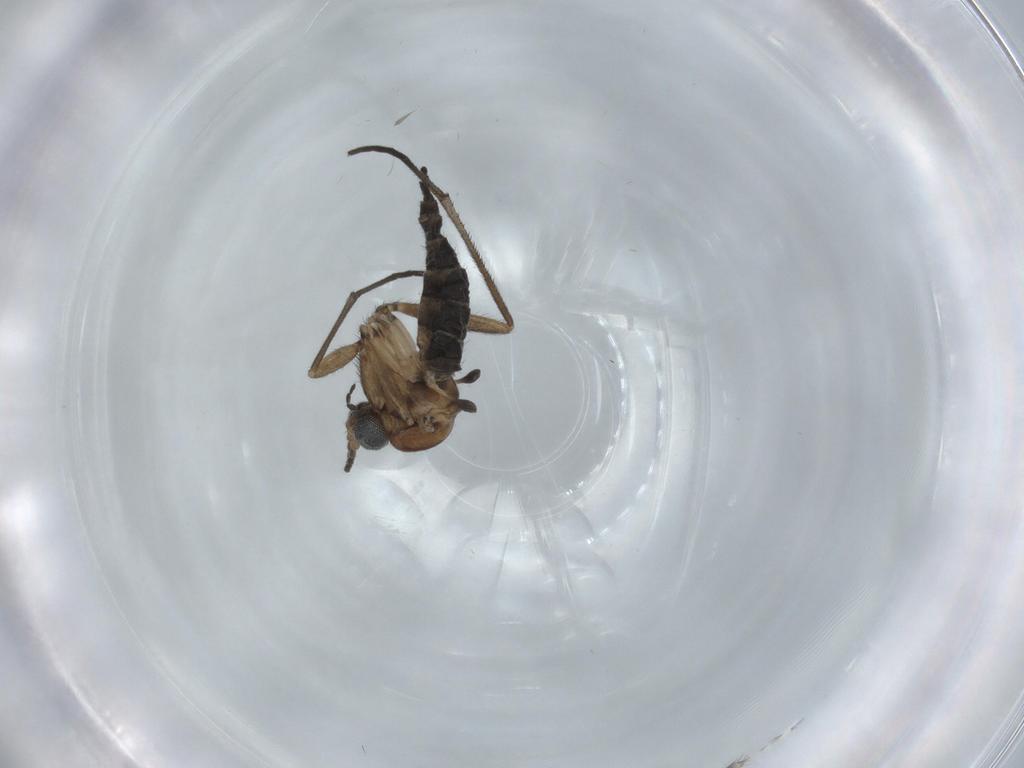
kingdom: Animalia
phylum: Arthropoda
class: Insecta
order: Diptera
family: Sciaridae
